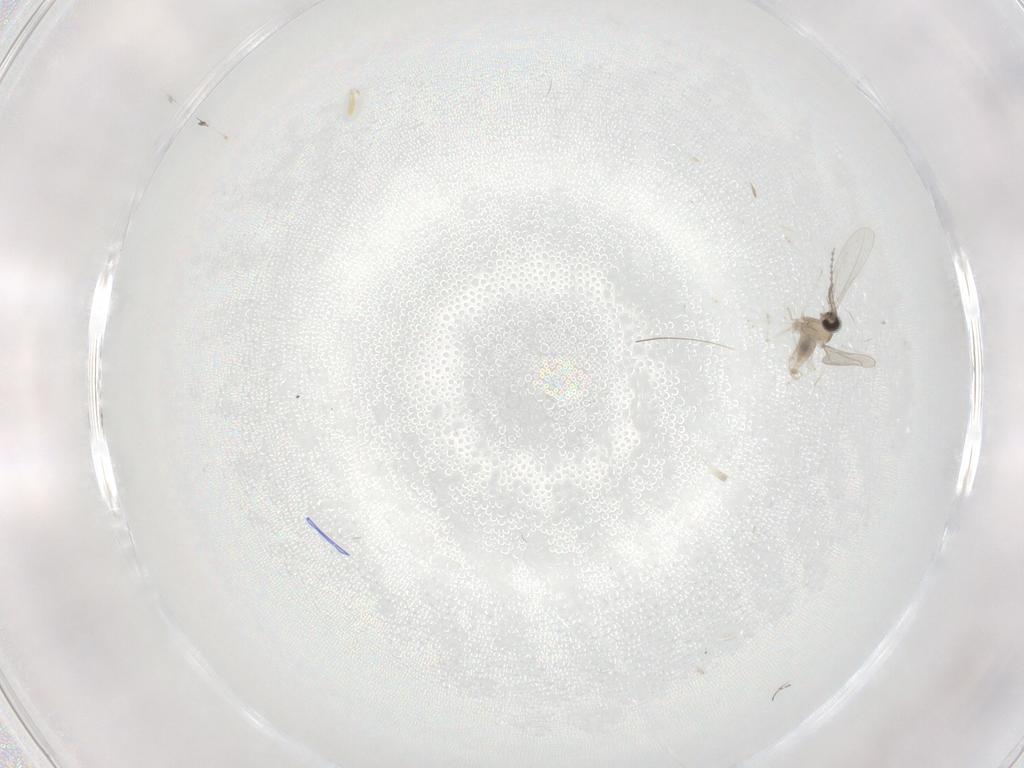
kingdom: Animalia
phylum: Arthropoda
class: Insecta
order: Diptera
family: Sciaridae
